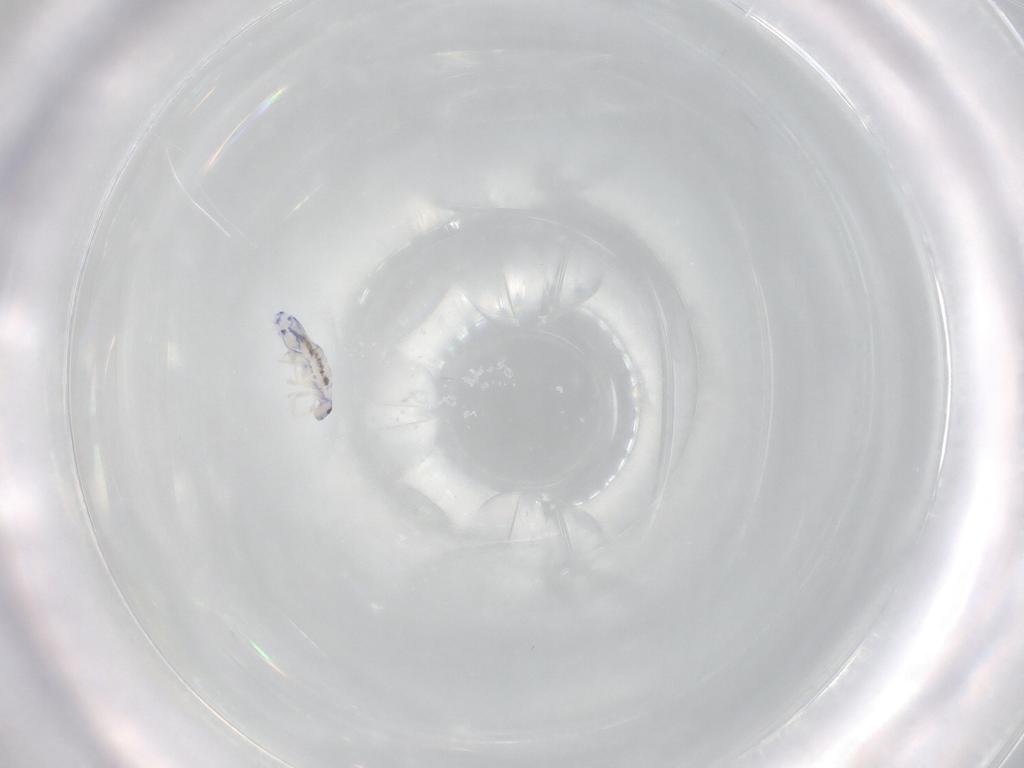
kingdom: Animalia
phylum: Arthropoda
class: Collembola
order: Entomobryomorpha
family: Entomobryidae
